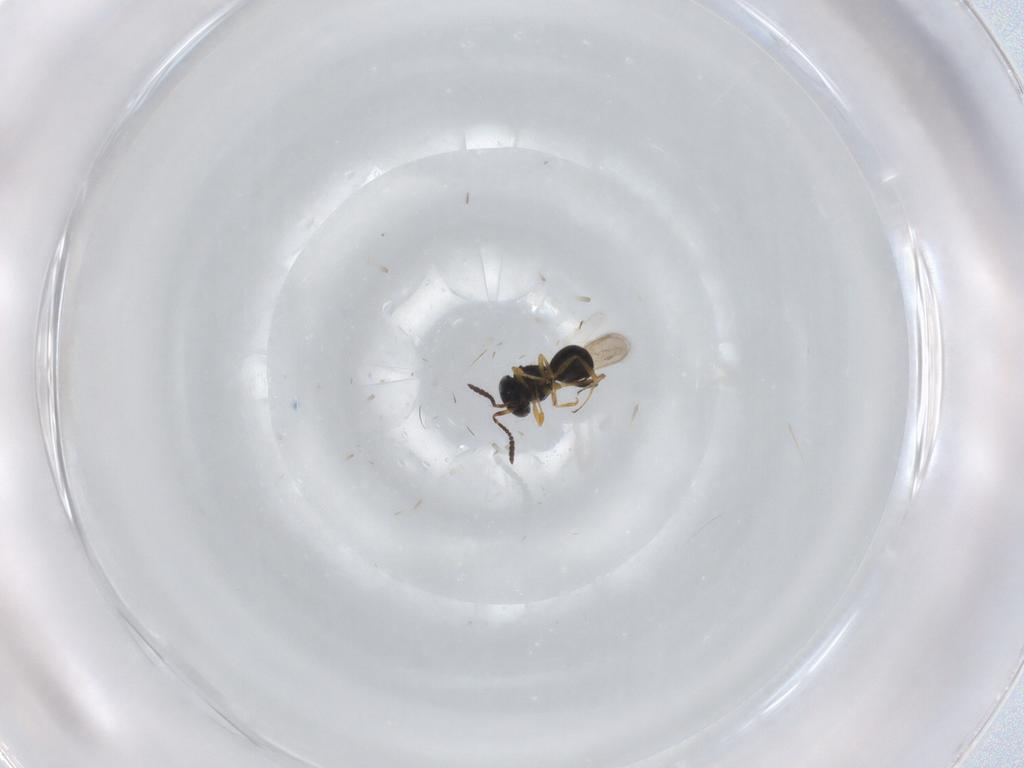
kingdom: Animalia
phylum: Arthropoda
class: Insecta
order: Hymenoptera
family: Scelionidae
